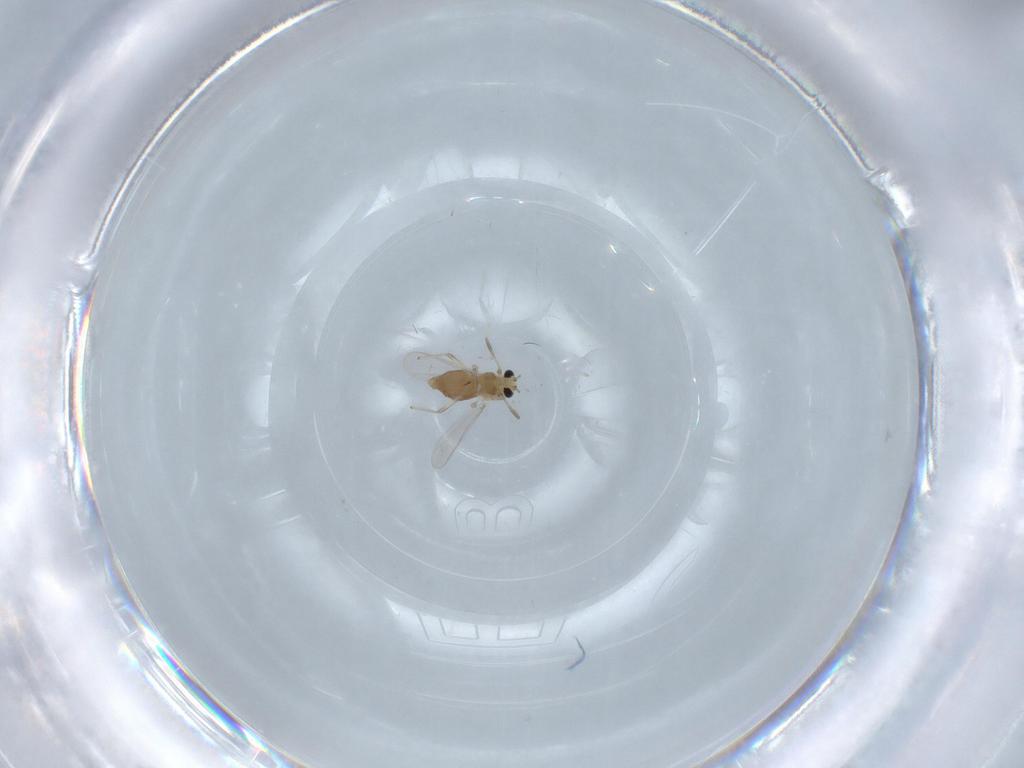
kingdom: Animalia
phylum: Arthropoda
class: Insecta
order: Diptera
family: Chironomidae
